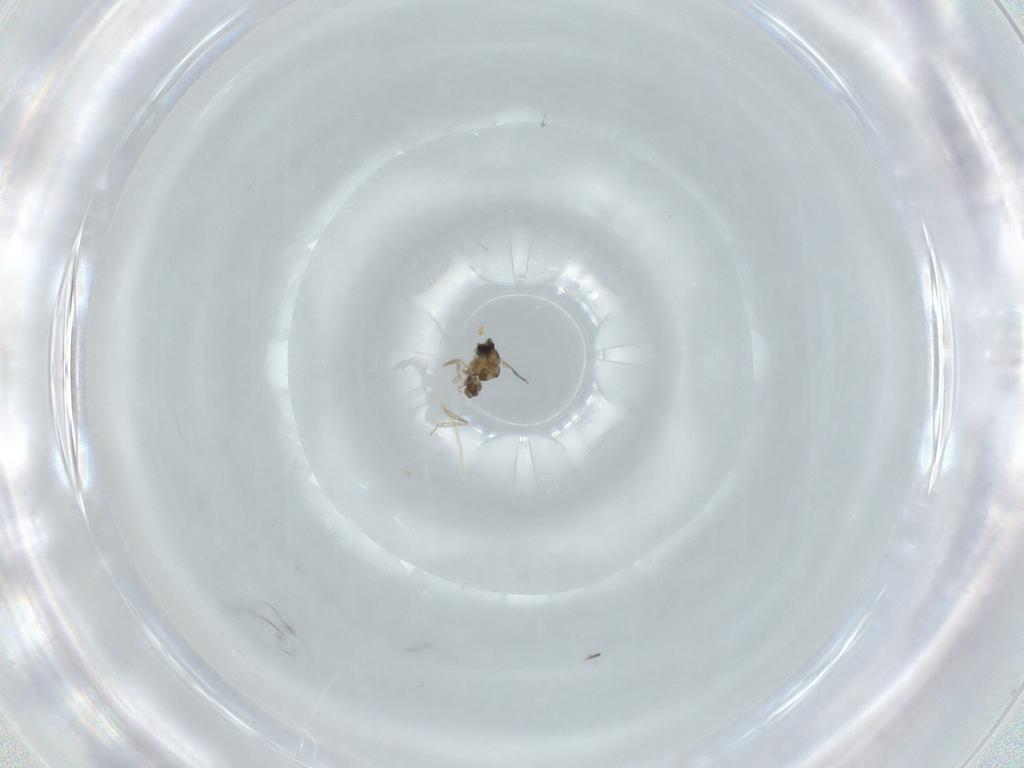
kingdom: Animalia
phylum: Arthropoda
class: Insecta
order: Diptera
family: Cecidomyiidae
